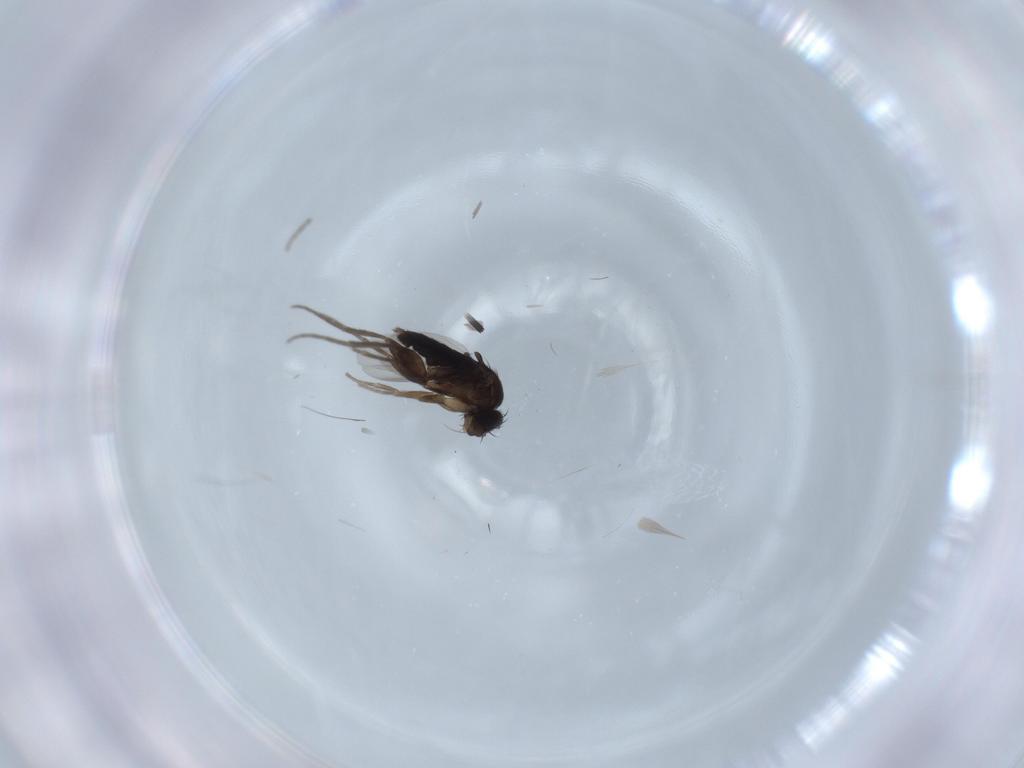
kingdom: Animalia
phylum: Arthropoda
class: Insecta
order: Diptera
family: Phoridae
